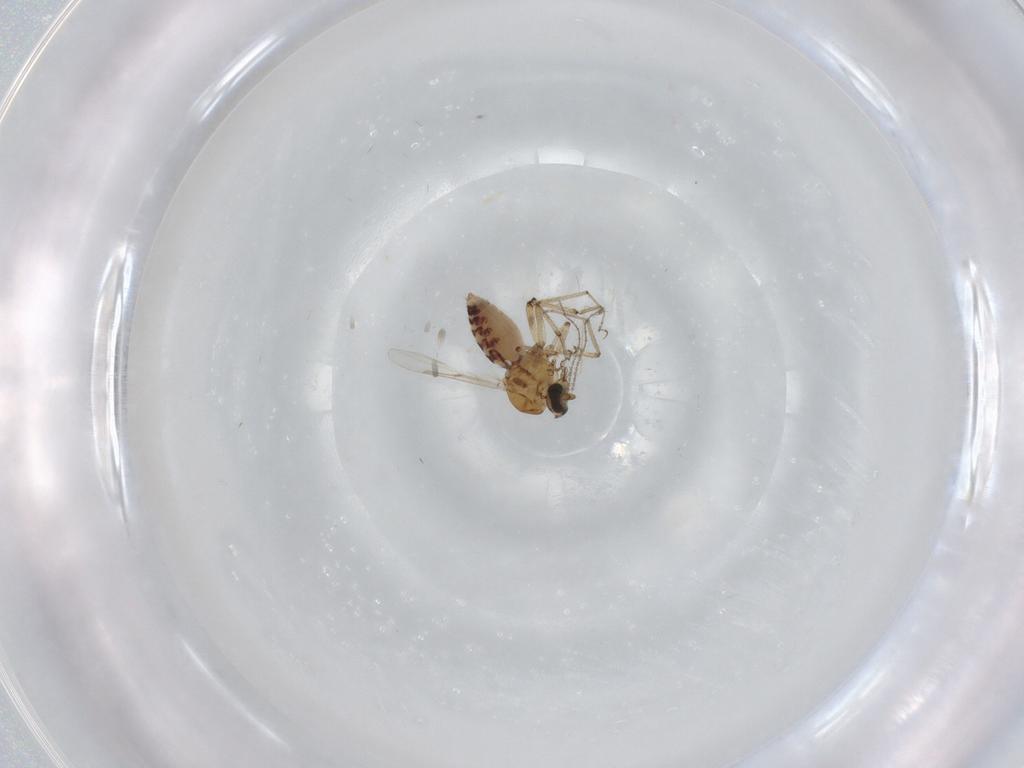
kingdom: Animalia
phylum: Arthropoda
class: Insecta
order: Diptera
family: Ceratopogonidae
